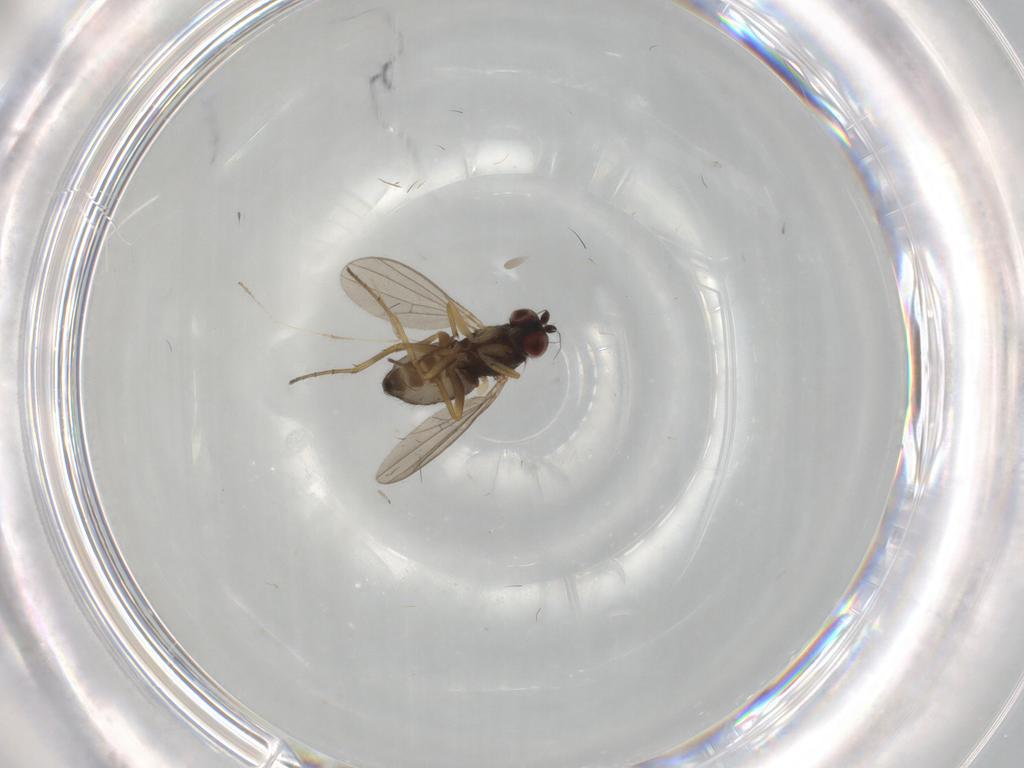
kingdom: Animalia
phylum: Arthropoda
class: Insecta
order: Diptera
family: Dolichopodidae
